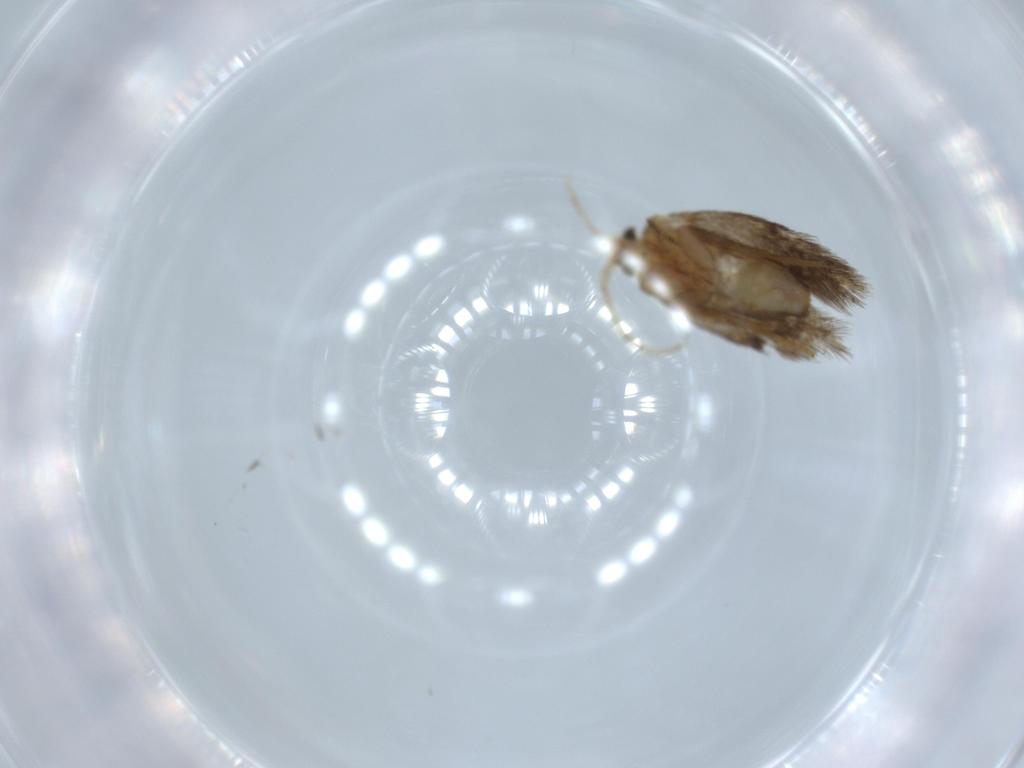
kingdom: Animalia
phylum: Arthropoda
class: Insecta
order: Lepidoptera
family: Nepticulidae
